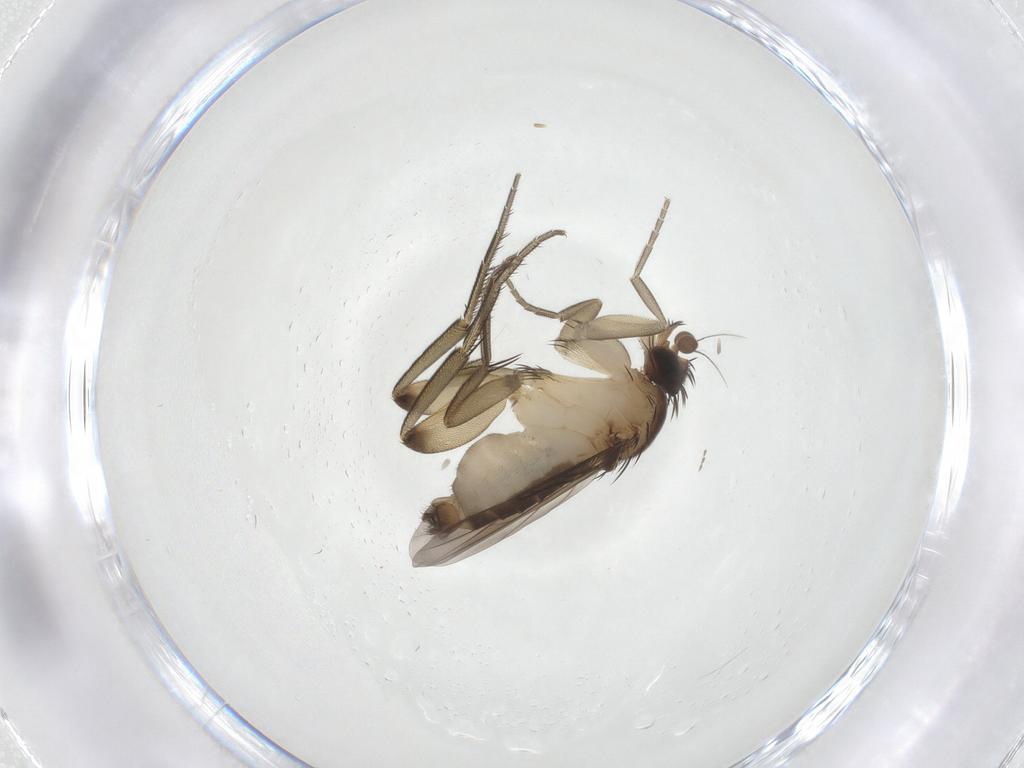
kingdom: Animalia
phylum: Arthropoda
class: Insecta
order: Diptera
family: Phoridae
